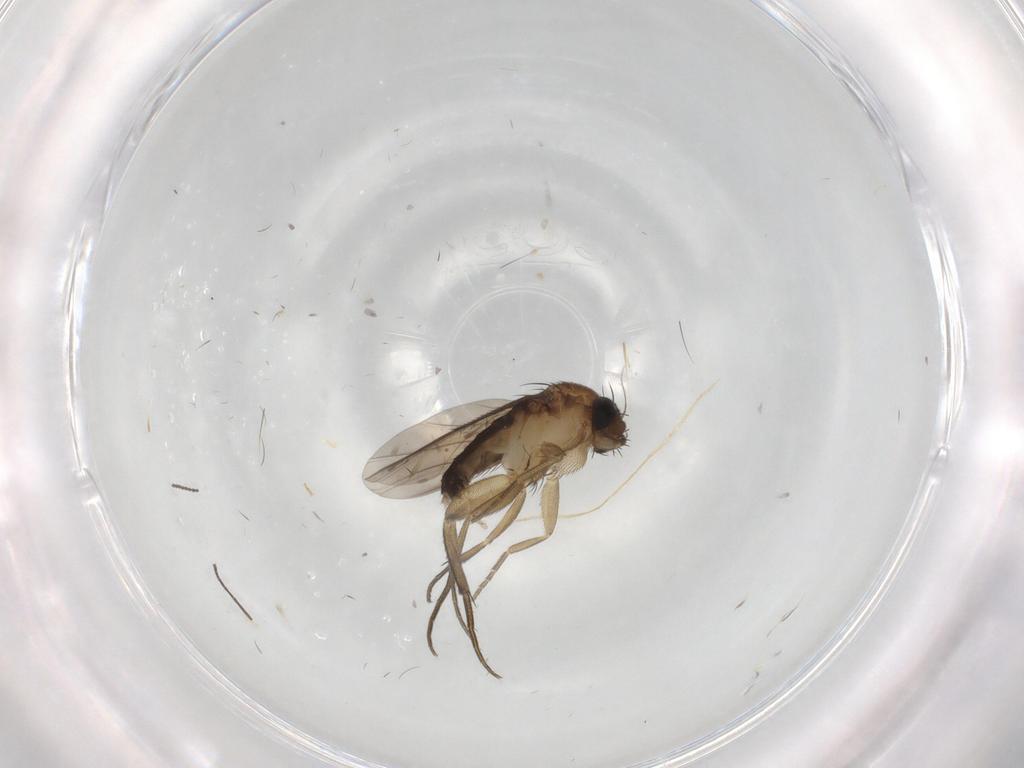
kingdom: Animalia
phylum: Arthropoda
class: Insecta
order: Diptera
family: Sciaridae
